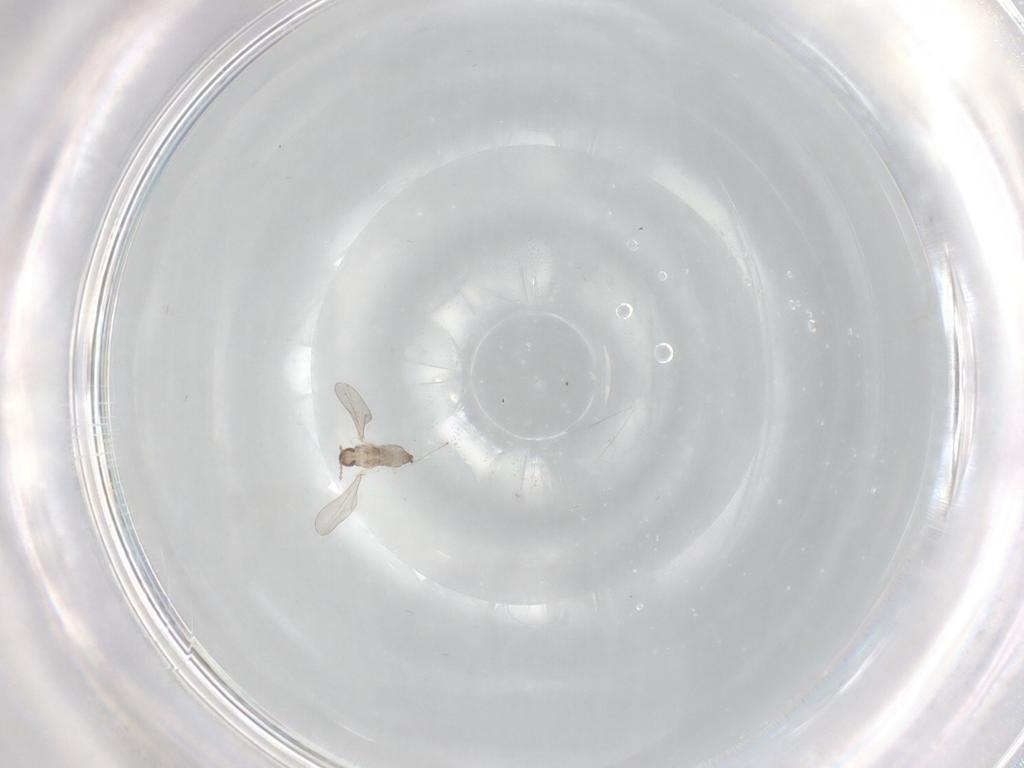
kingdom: Animalia
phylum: Arthropoda
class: Insecta
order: Diptera
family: Cecidomyiidae
